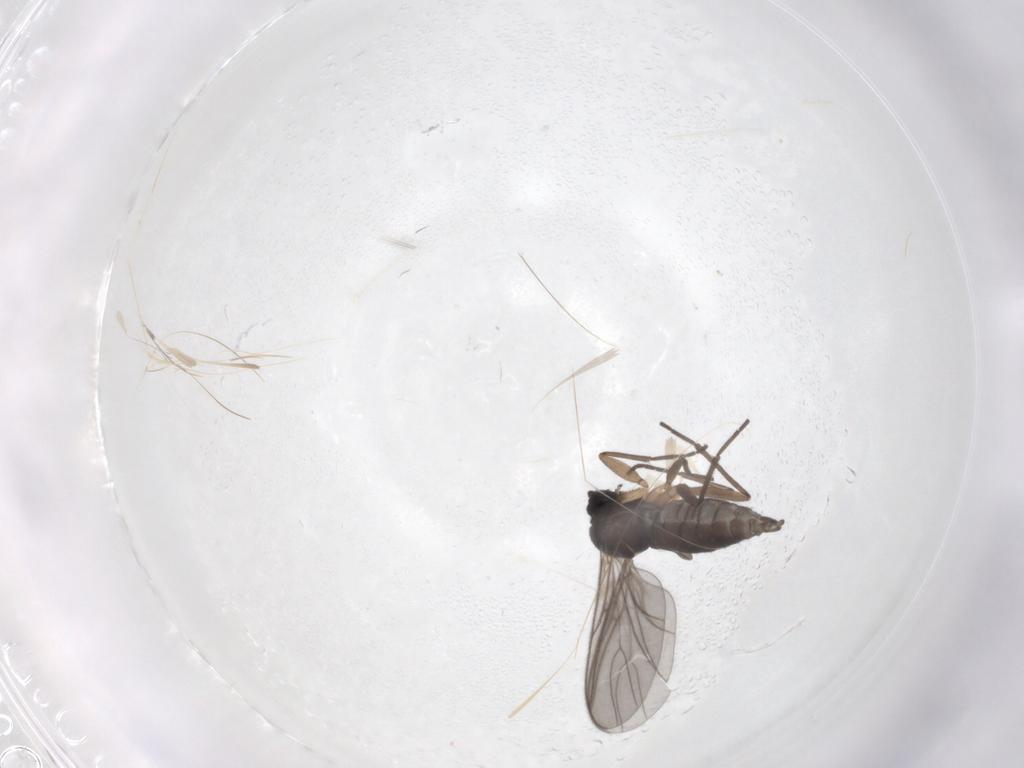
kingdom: Animalia
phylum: Arthropoda
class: Insecta
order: Diptera
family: Sciaridae
